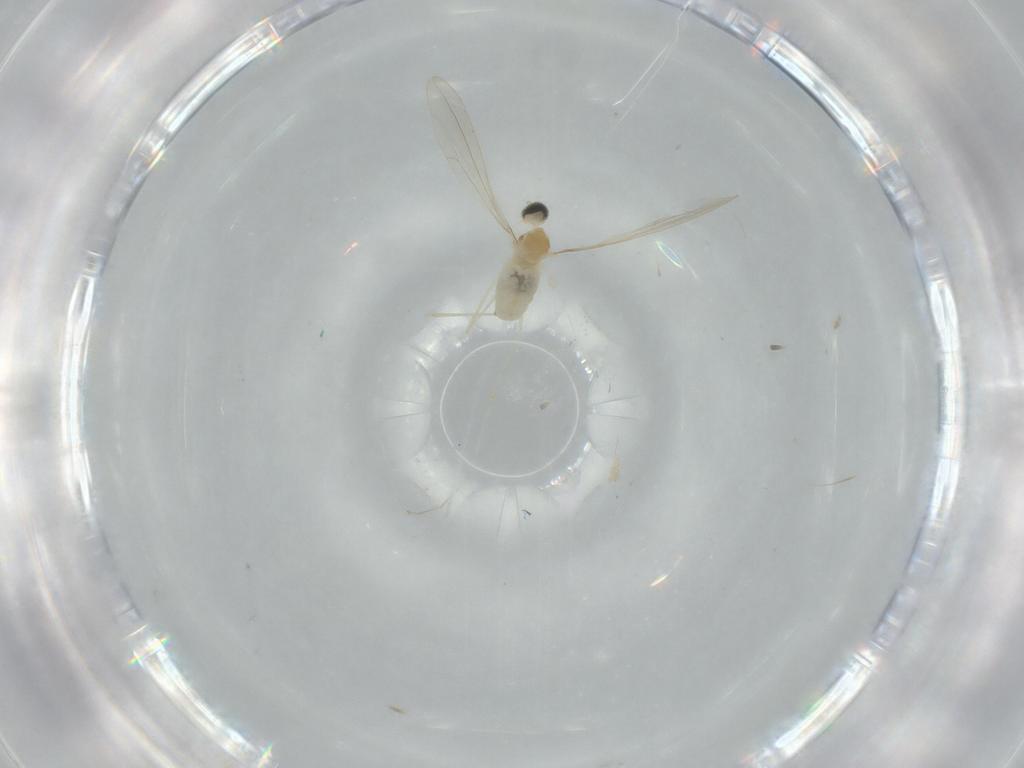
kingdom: Animalia
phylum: Arthropoda
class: Insecta
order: Diptera
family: Cecidomyiidae
